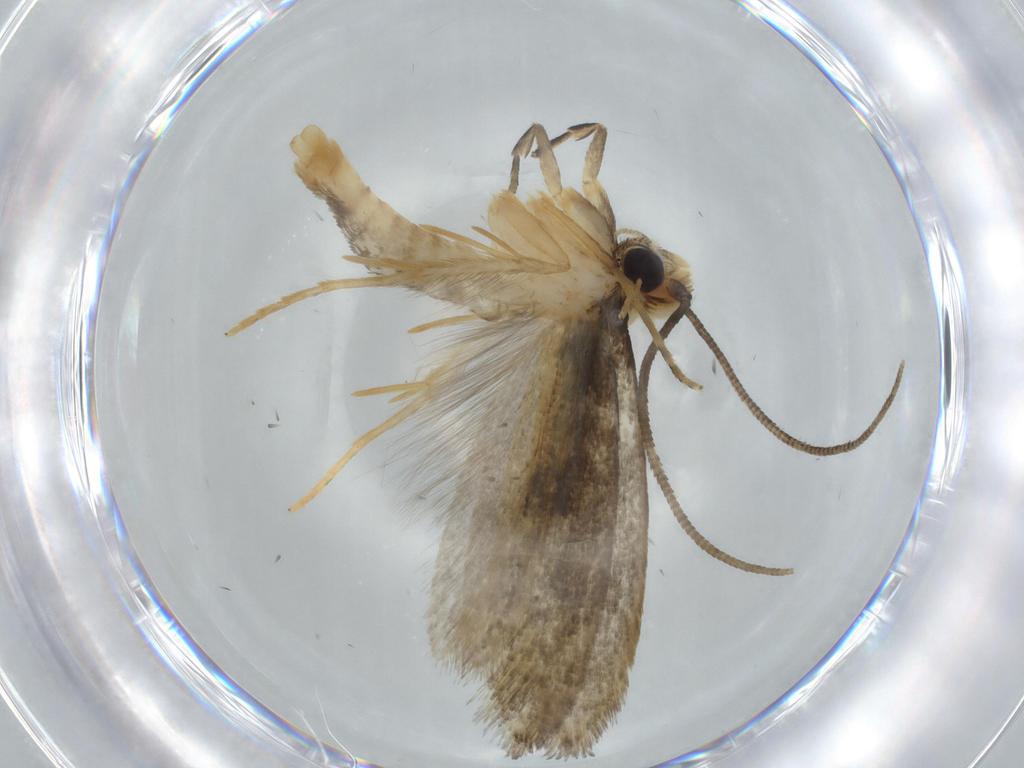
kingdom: Animalia
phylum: Arthropoda
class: Insecta
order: Lepidoptera
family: Tineidae
